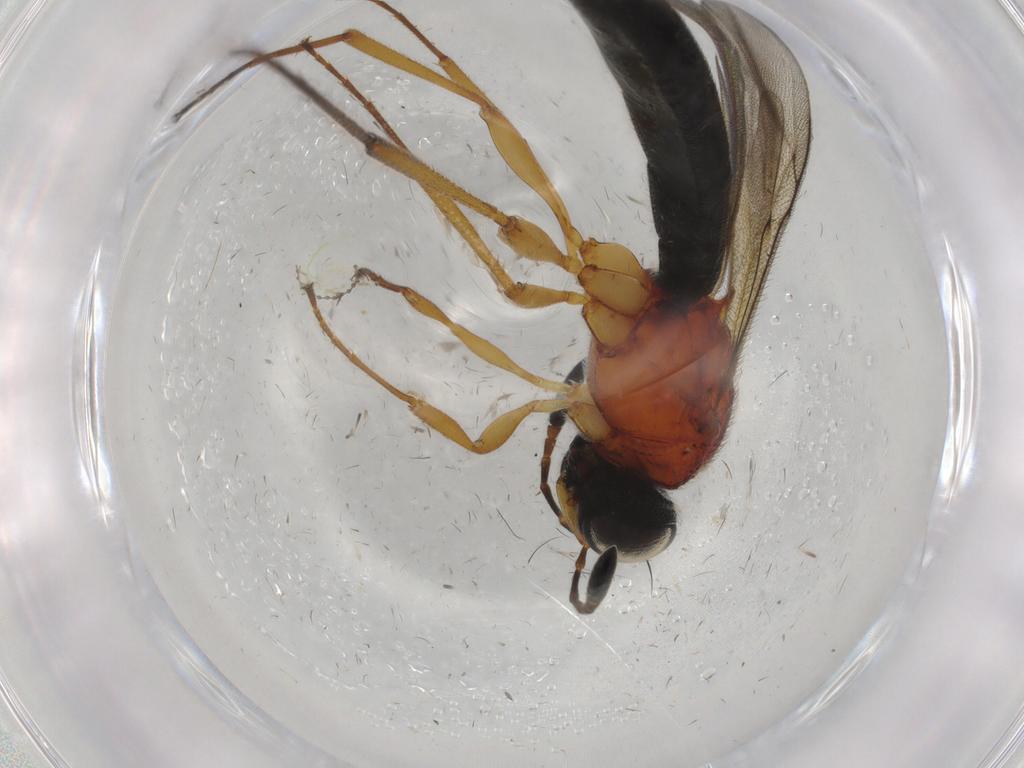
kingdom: Animalia
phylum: Arthropoda
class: Insecta
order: Hymenoptera
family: Scelionidae
